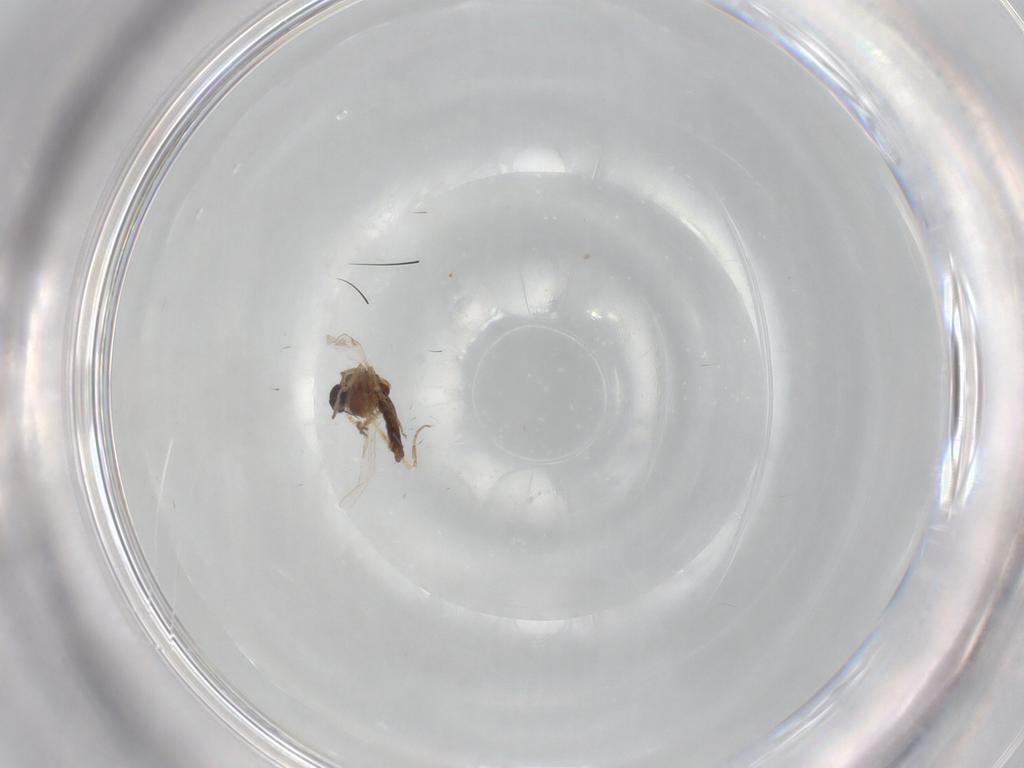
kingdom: Animalia
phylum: Arthropoda
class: Insecta
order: Diptera
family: Ceratopogonidae
